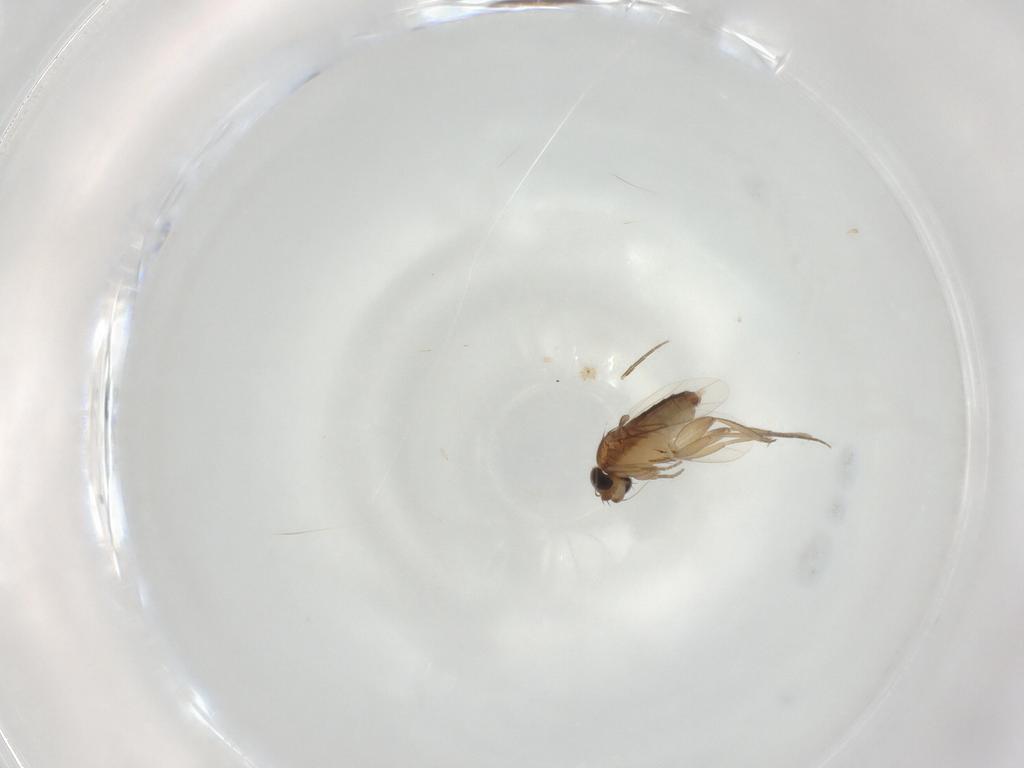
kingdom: Animalia
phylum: Arthropoda
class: Insecta
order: Diptera
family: Phoridae
